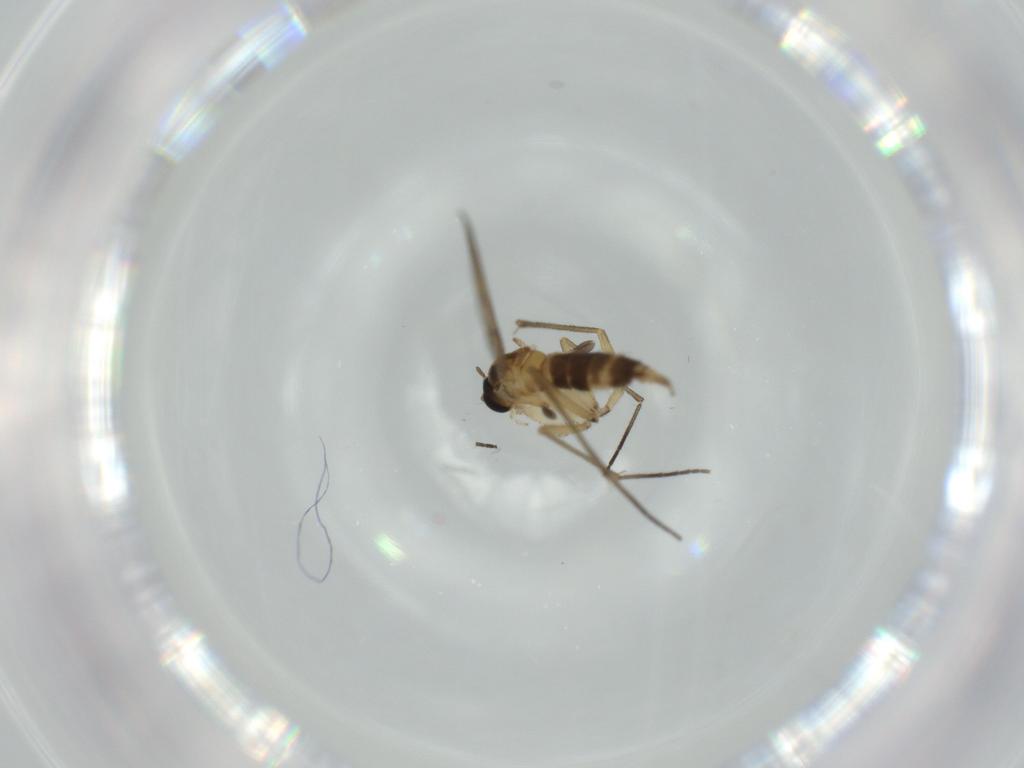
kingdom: Animalia
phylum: Arthropoda
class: Insecta
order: Diptera
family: Sciaridae
